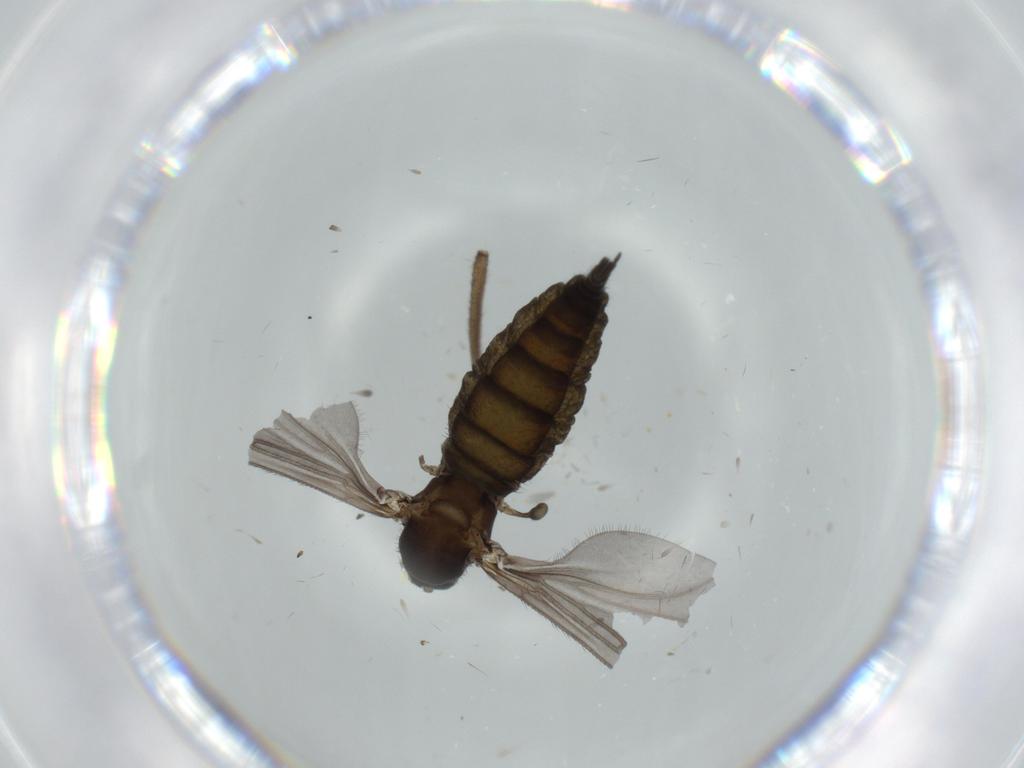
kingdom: Animalia
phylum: Arthropoda
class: Insecta
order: Diptera
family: Sciaridae
